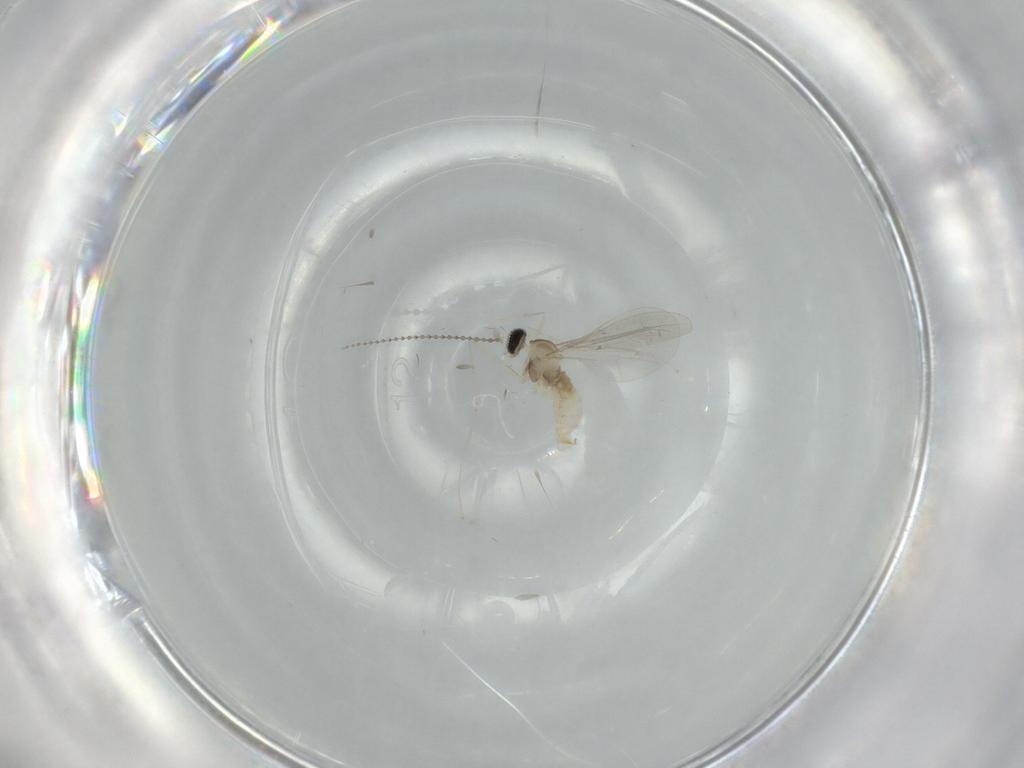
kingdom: Animalia
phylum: Arthropoda
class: Insecta
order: Diptera
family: Cecidomyiidae
